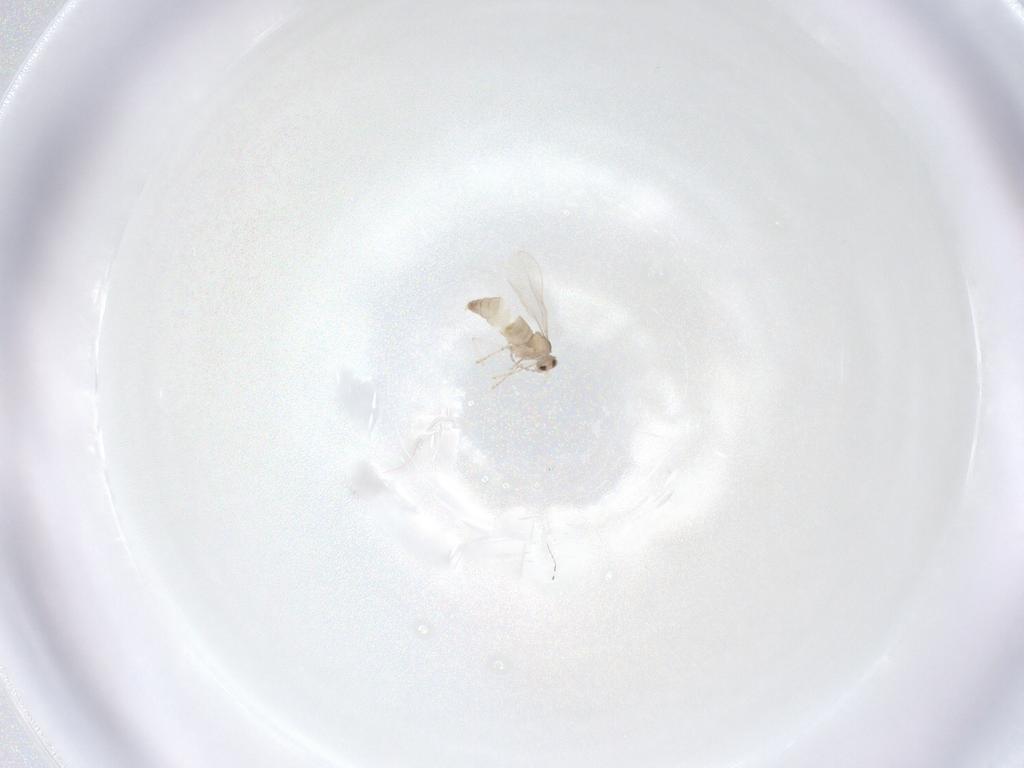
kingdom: Animalia
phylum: Arthropoda
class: Insecta
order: Diptera
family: Cecidomyiidae
